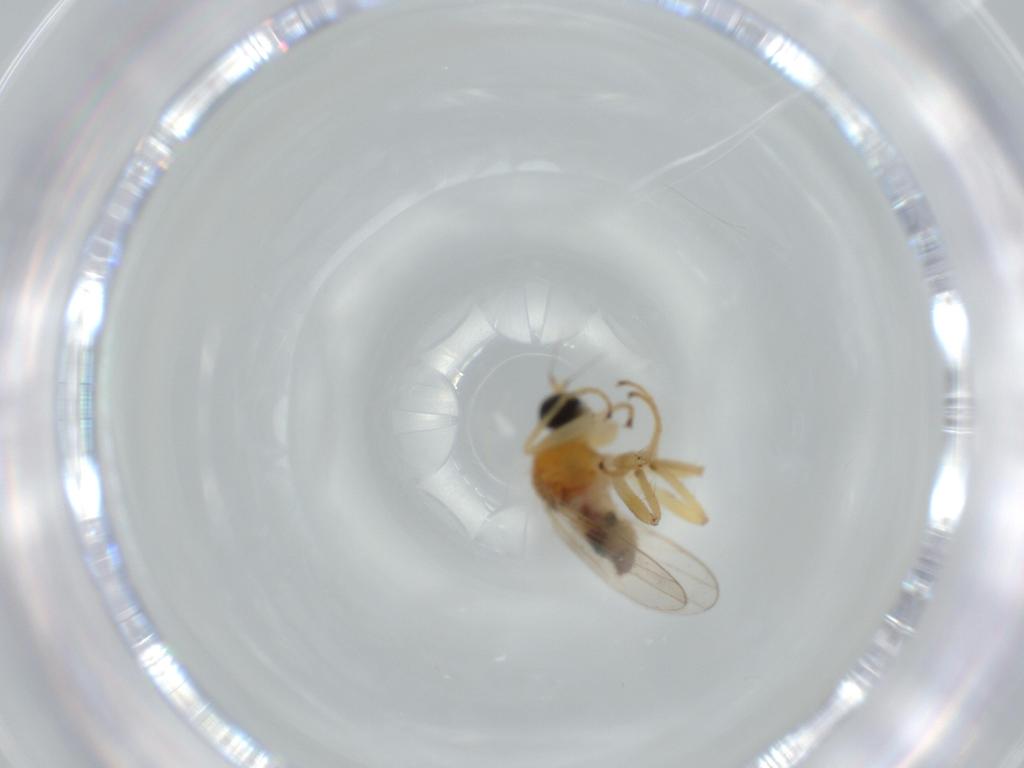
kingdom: Animalia
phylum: Arthropoda
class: Insecta
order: Diptera
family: Hybotidae
